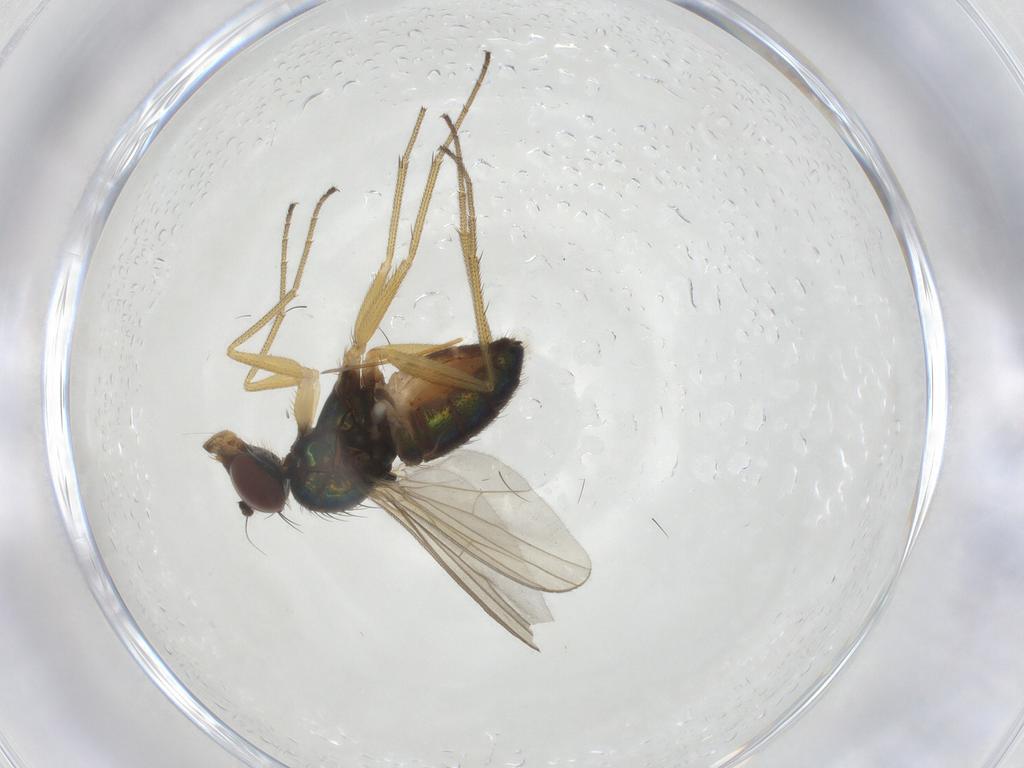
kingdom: Animalia
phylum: Arthropoda
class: Insecta
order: Diptera
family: Dolichopodidae
